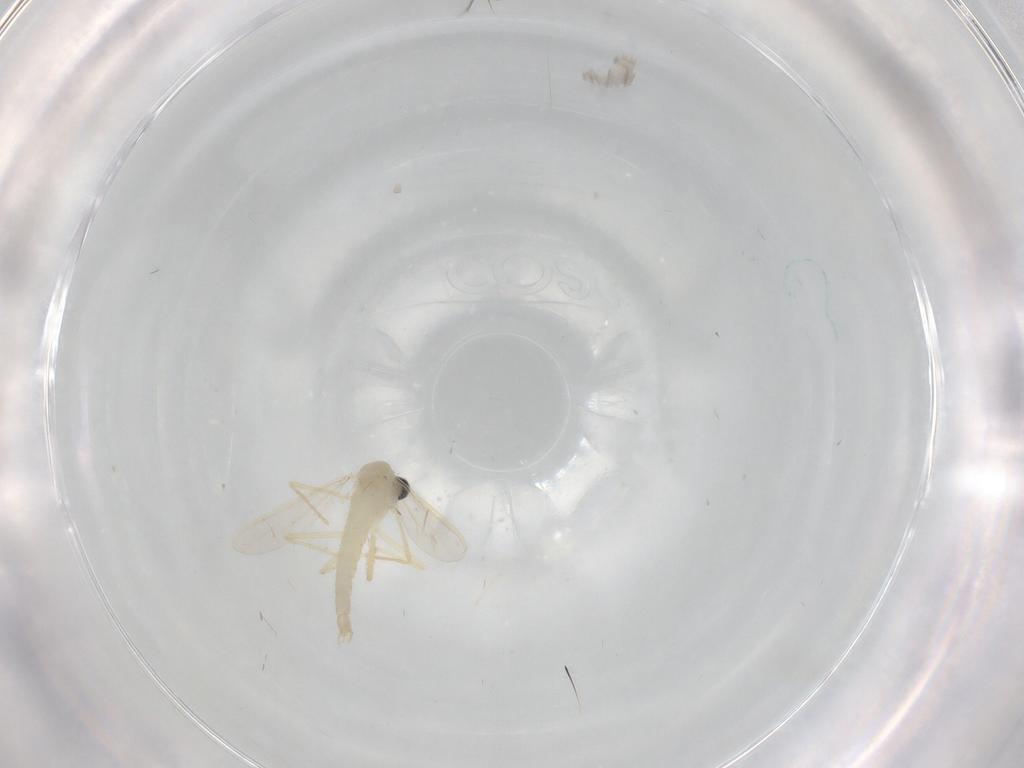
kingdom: Animalia
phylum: Arthropoda
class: Insecta
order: Diptera
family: Chironomidae
